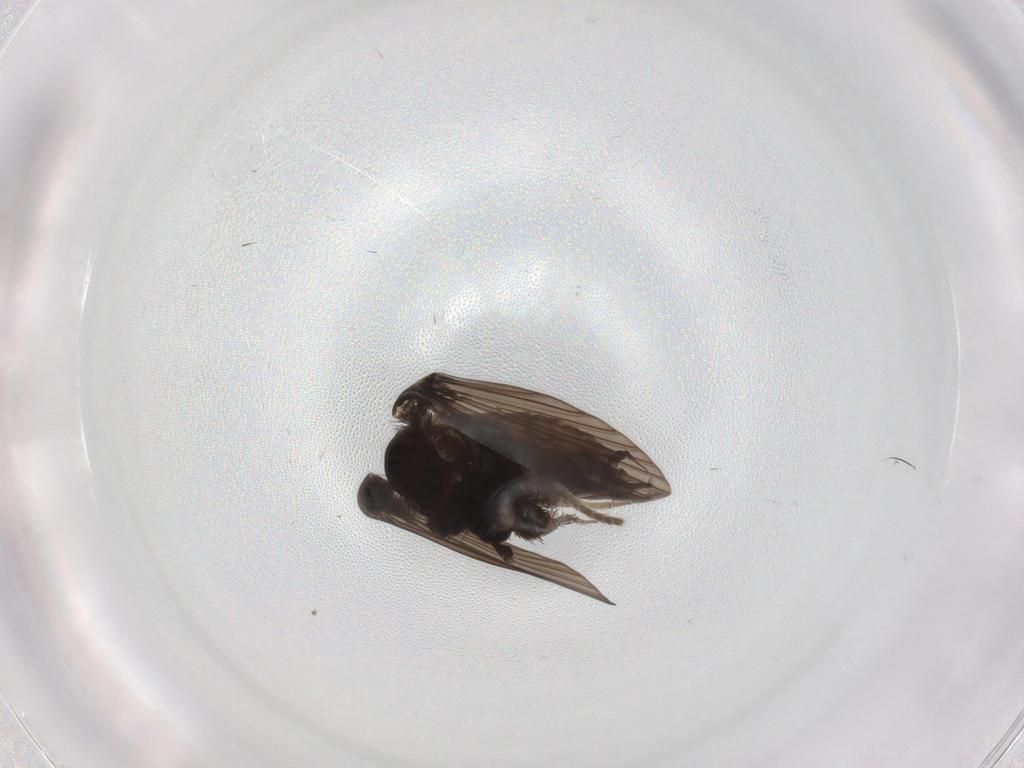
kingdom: Animalia
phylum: Arthropoda
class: Insecta
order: Diptera
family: Psychodidae
